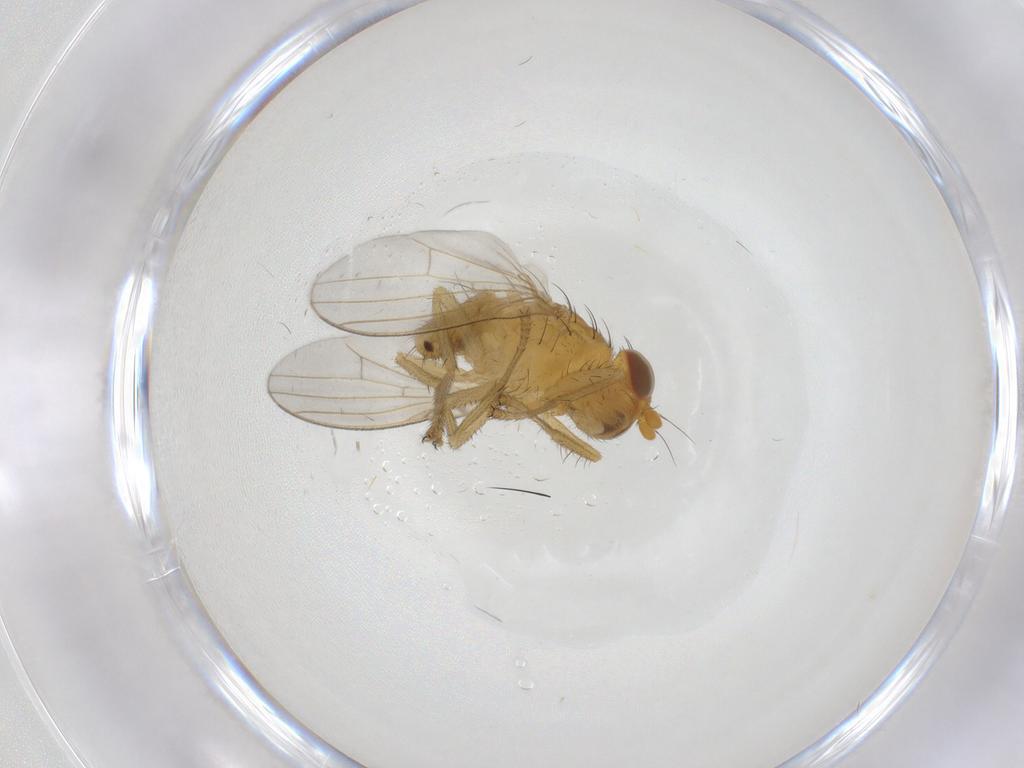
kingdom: Animalia
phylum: Arthropoda
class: Insecta
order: Diptera
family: Lauxaniidae
